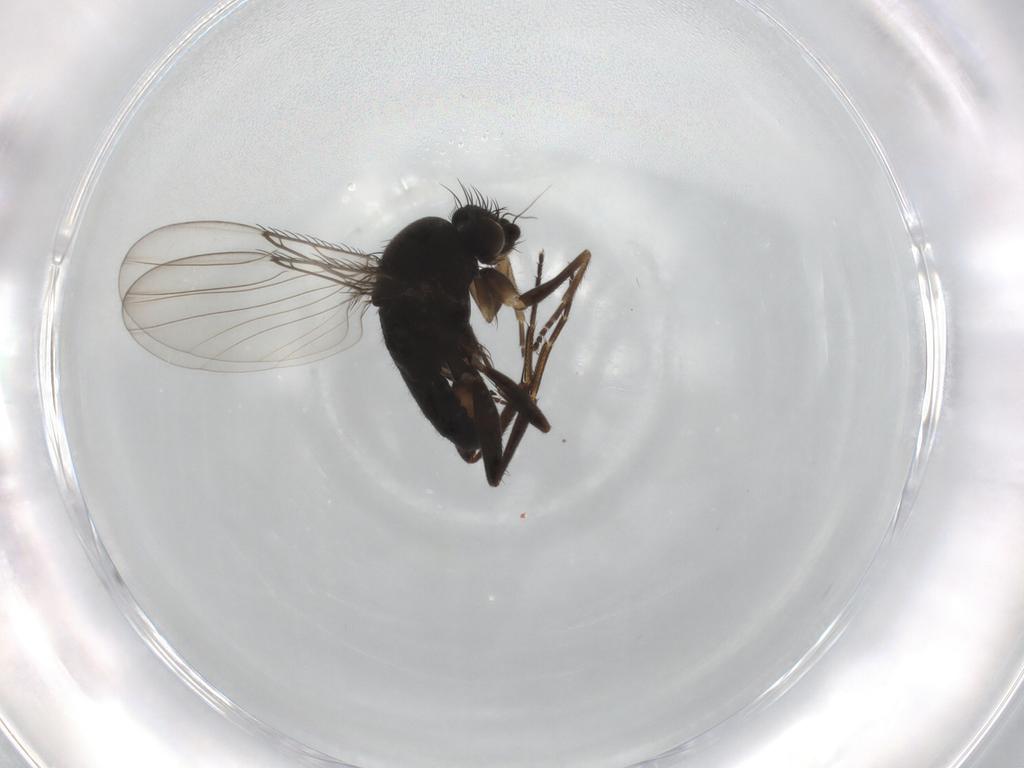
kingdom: Animalia
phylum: Arthropoda
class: Insecta
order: Diptera
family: Phoridae
